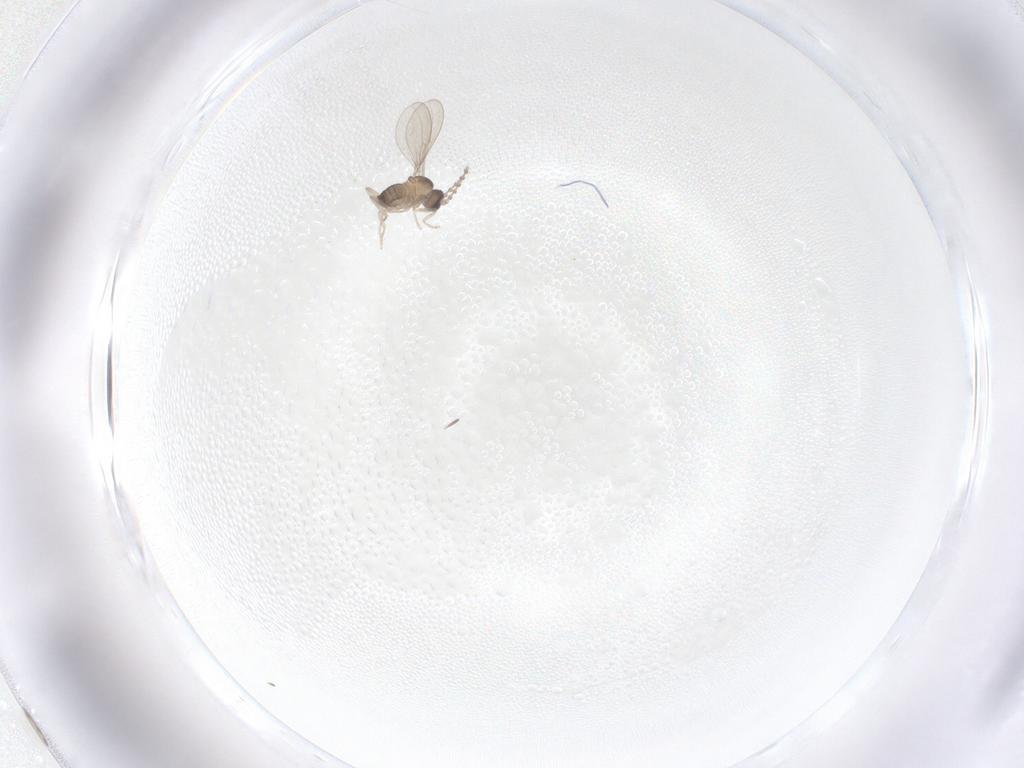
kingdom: Animalia
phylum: Arthropoda
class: Insecta
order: Diptera
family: Cecidomyiidae
